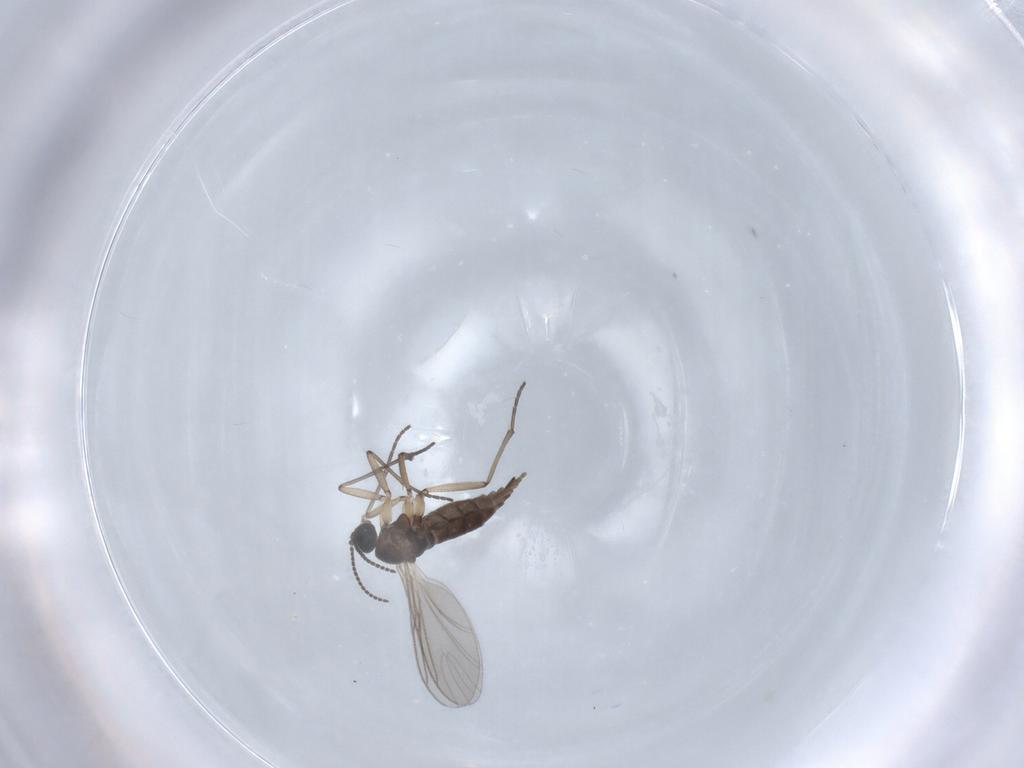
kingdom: Animalia
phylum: Arthropoda
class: Insecta
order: Diptera
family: Sciaridae
